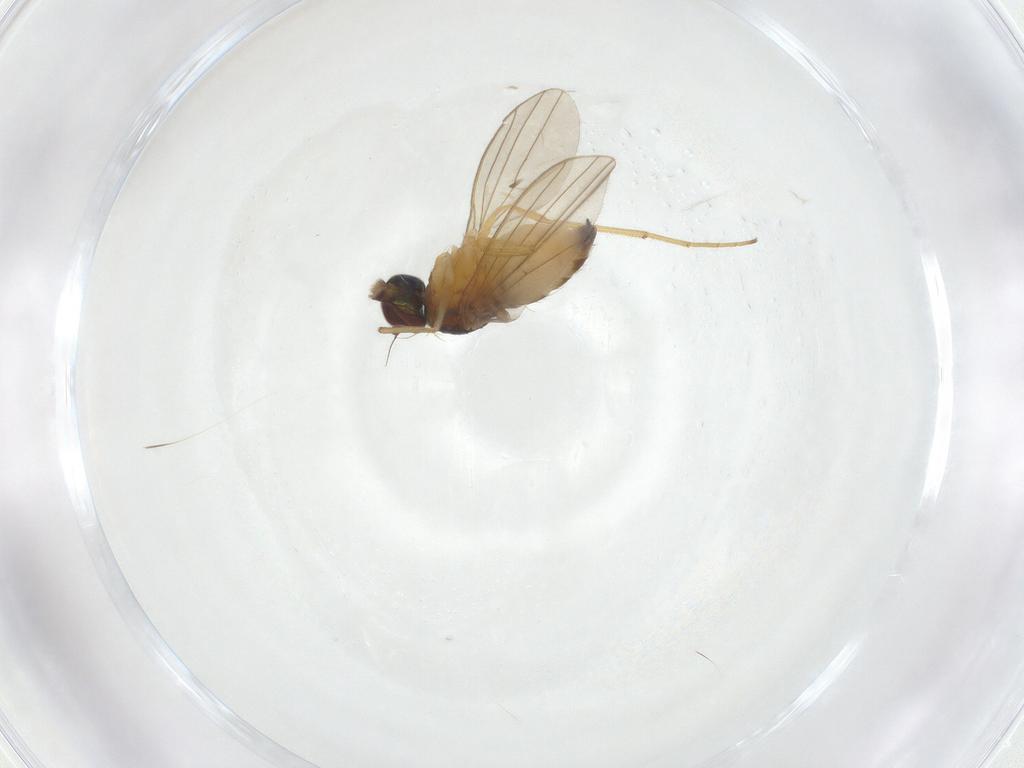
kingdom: Animalia
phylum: Arthropoda
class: Insecta
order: Diptera
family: Dolichopodidae
